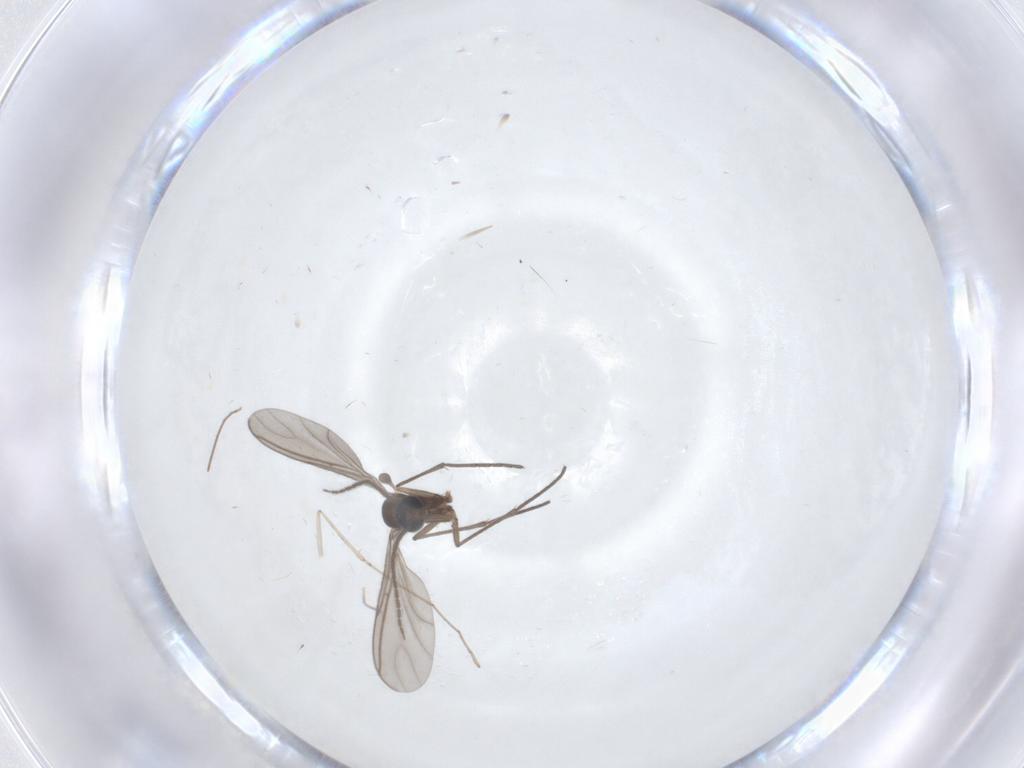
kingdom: Animalia
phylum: Arthropoda
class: Insecta
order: Diptera
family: Sciaridae
